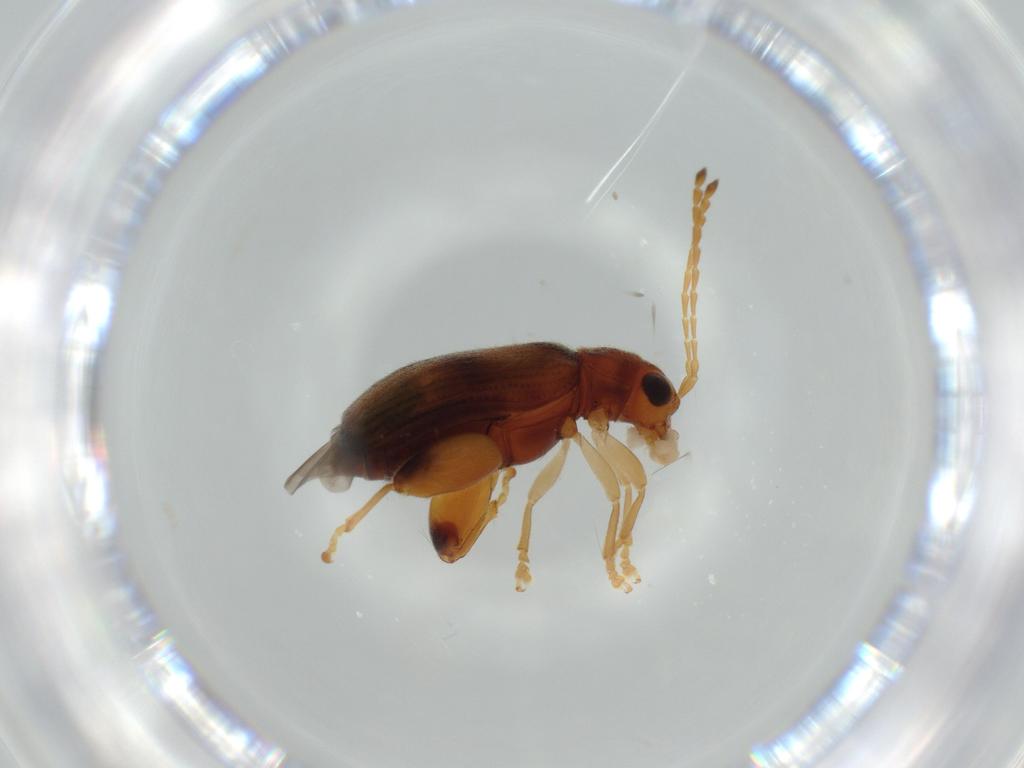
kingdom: Animalia
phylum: Arthropoda
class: Insecta
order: Coleoptera
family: Chrysomelidae
